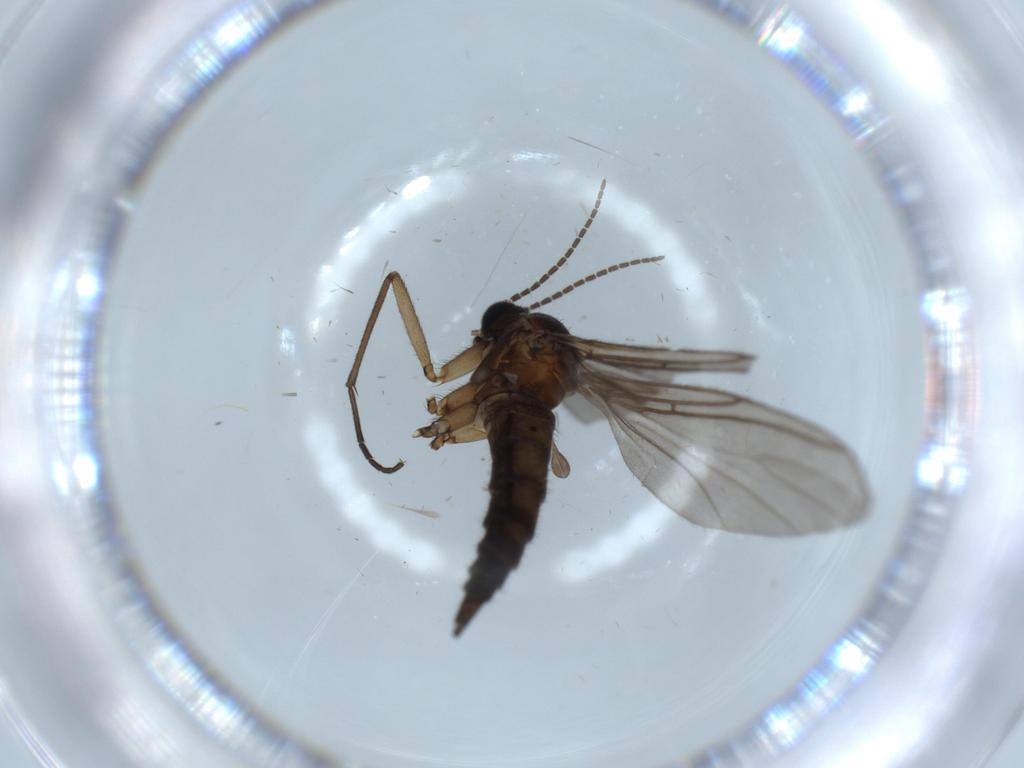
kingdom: Animalia
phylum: Arthropoda
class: Insecta
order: Diptera
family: Sciaridae
